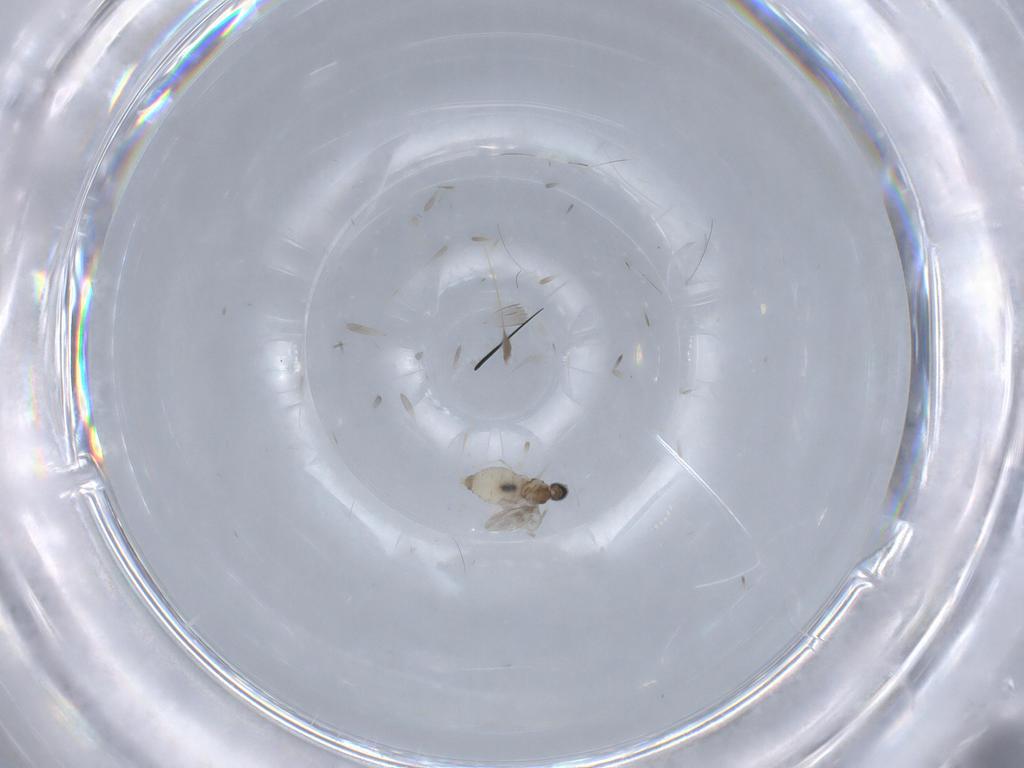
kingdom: Animalia
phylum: Arthropoda
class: Insecta
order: Diptera
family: Cecidomyiidae
